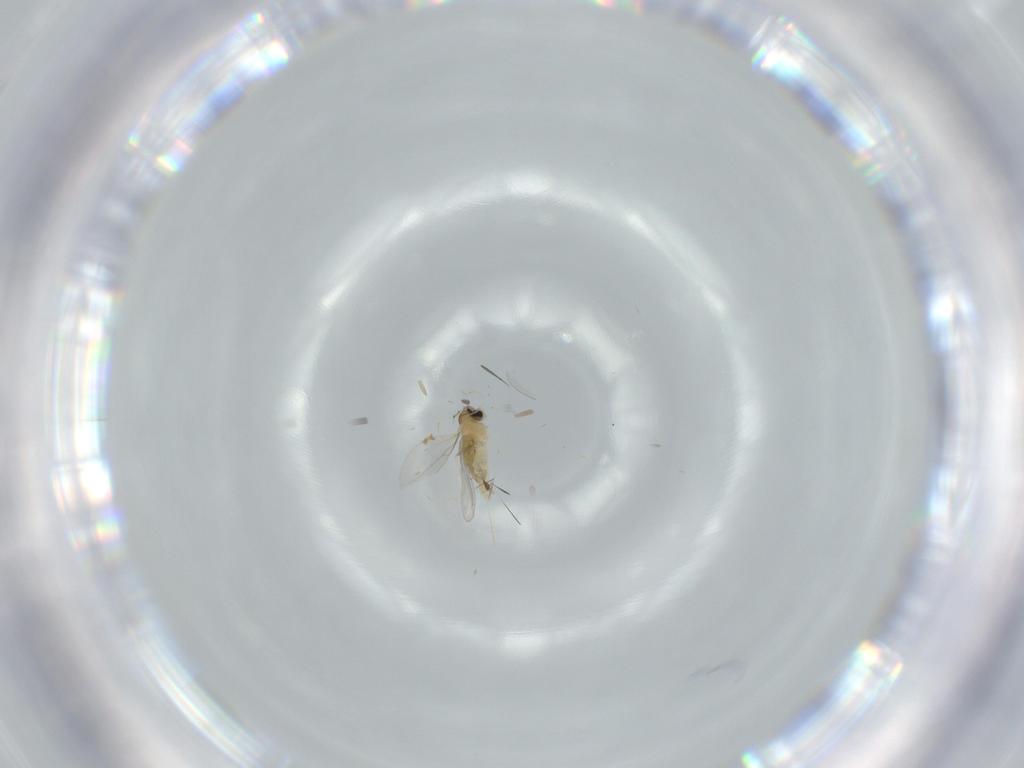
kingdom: Animalia
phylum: Arthropoda
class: Insecta
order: Diptera
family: Cecidomyiidae
